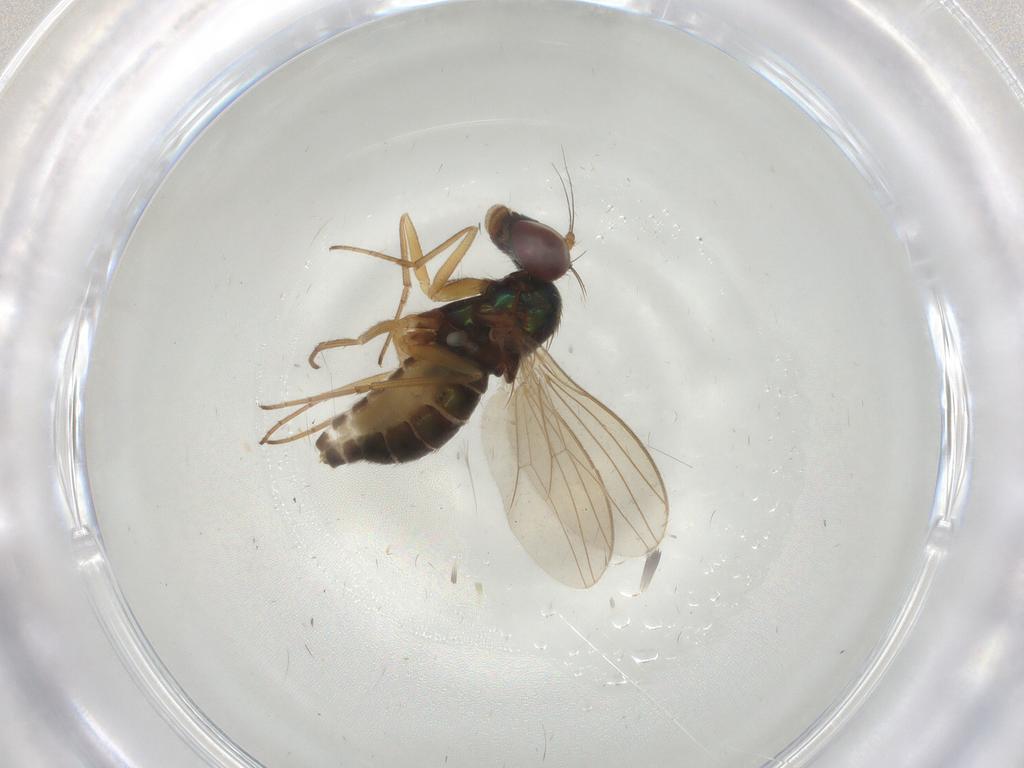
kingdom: Animalia
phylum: Arthropoda
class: Insecta
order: Diptera
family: Dolichopodidae
